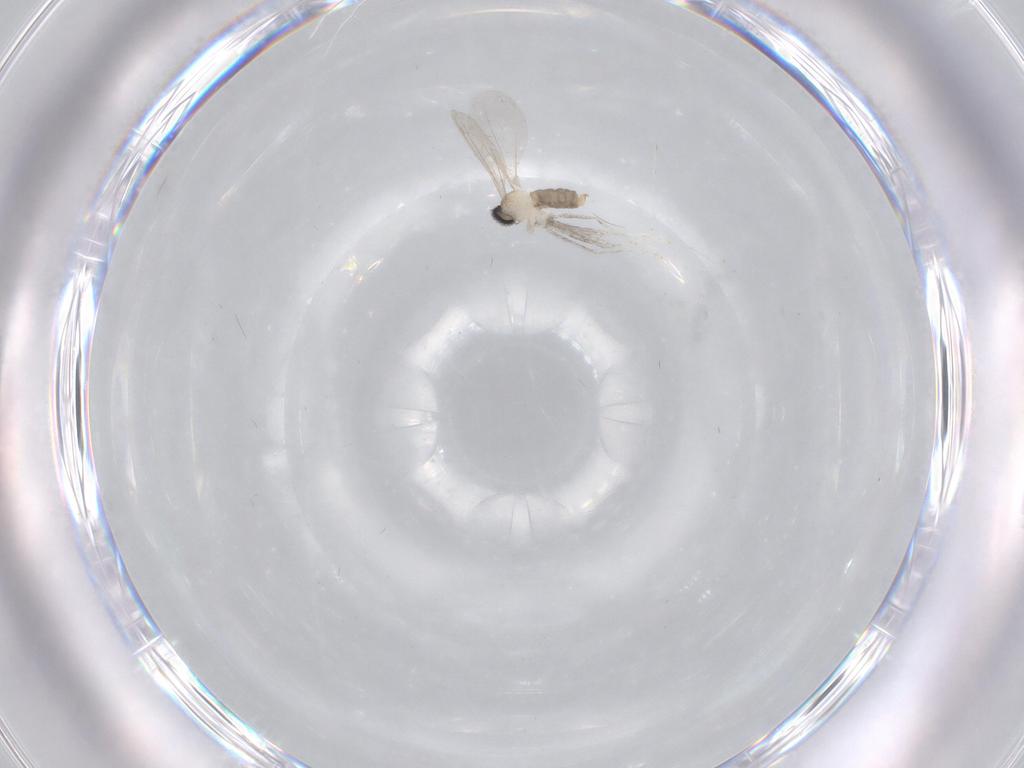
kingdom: Animalia
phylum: Arthropoda
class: Insecta
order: Diptera
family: Cecidomyiidae
